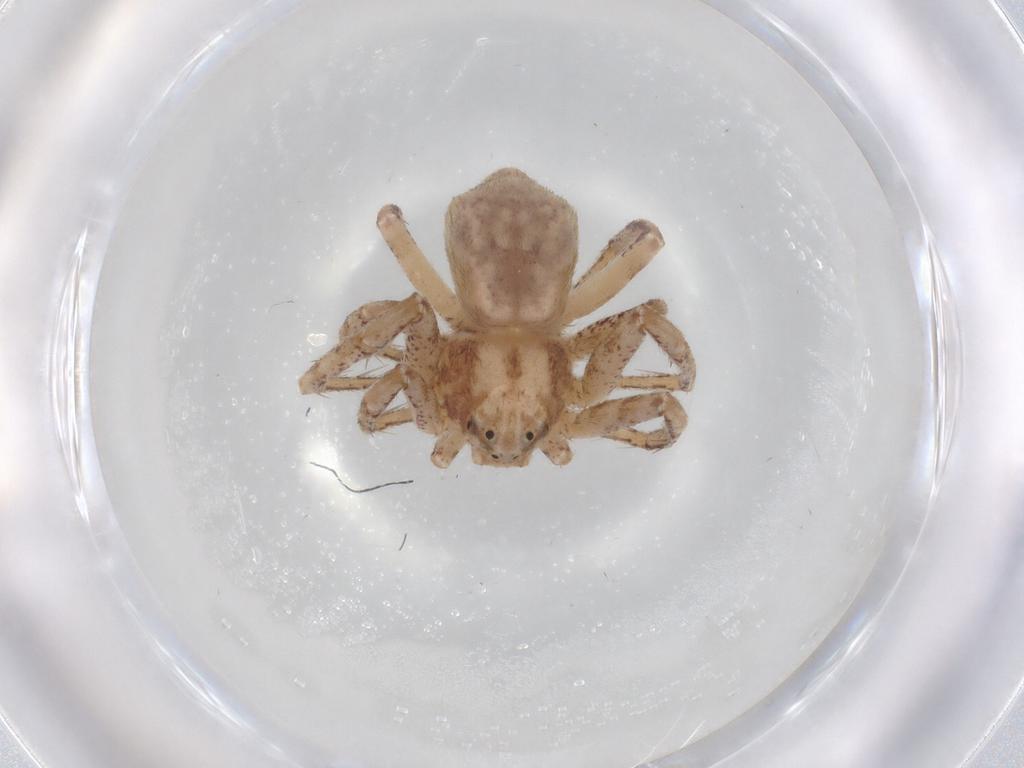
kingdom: Animalia
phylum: Arthropoda
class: Arachnida
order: Araneae
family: Philodromidae
